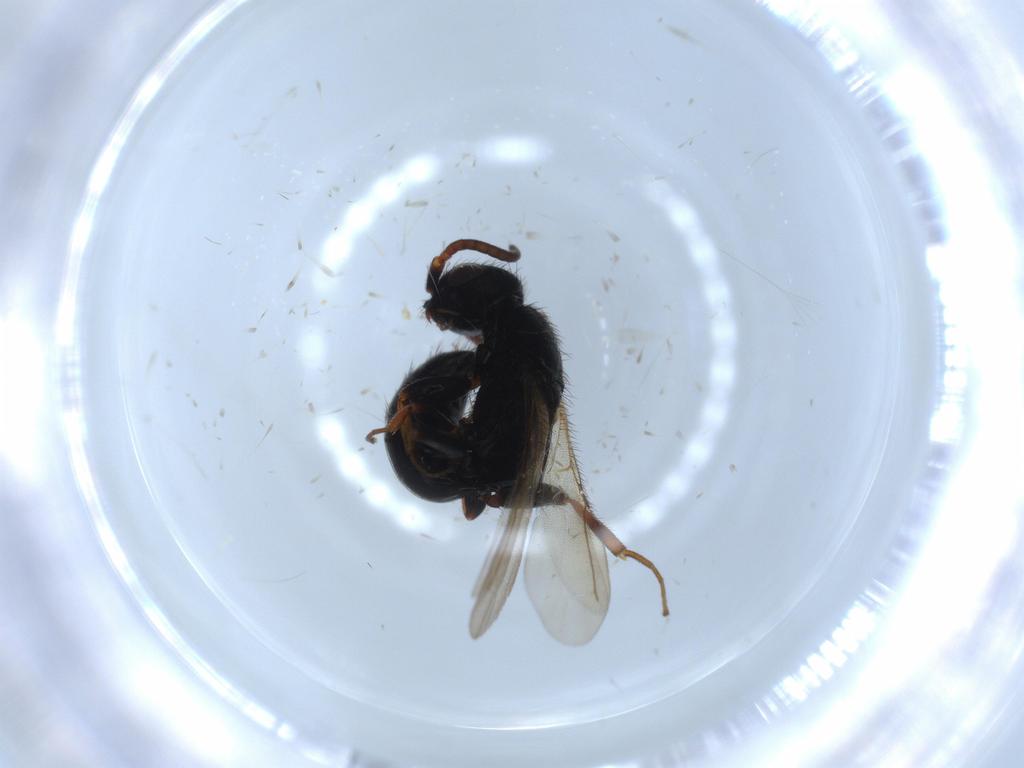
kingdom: Animalia
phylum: Arthropoda
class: Insecta
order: Hymenoptera
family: Bethylidae
